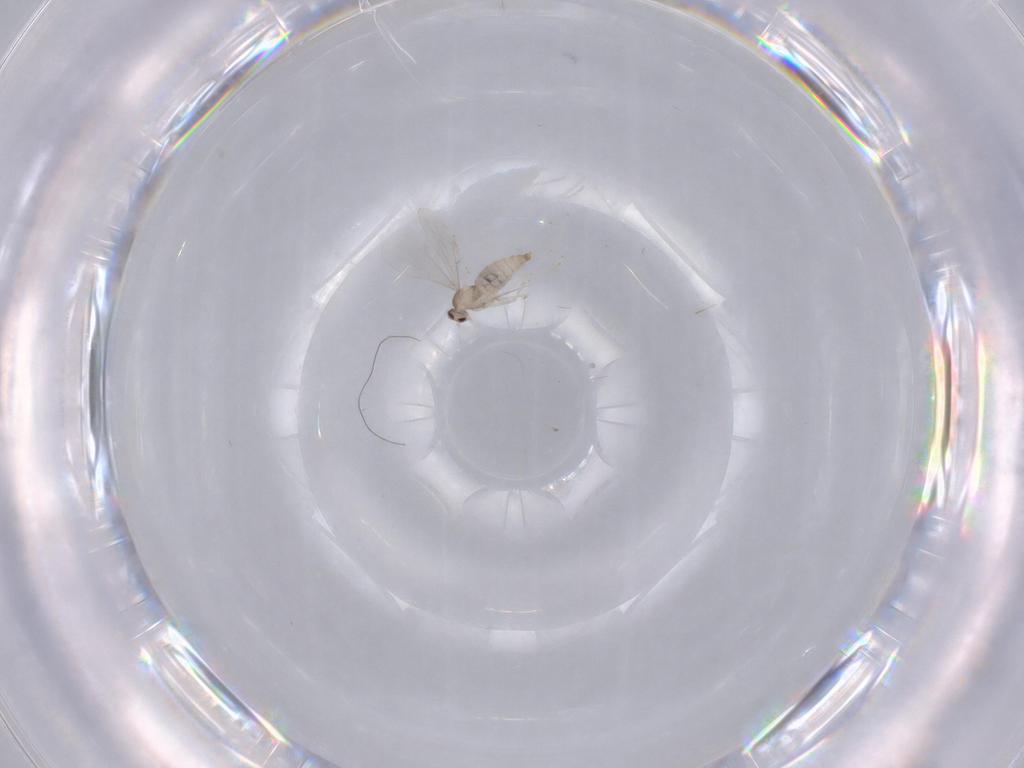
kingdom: Animalia
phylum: Arthropoda
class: Insecta
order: Diptera
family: Cecidomyiidae
